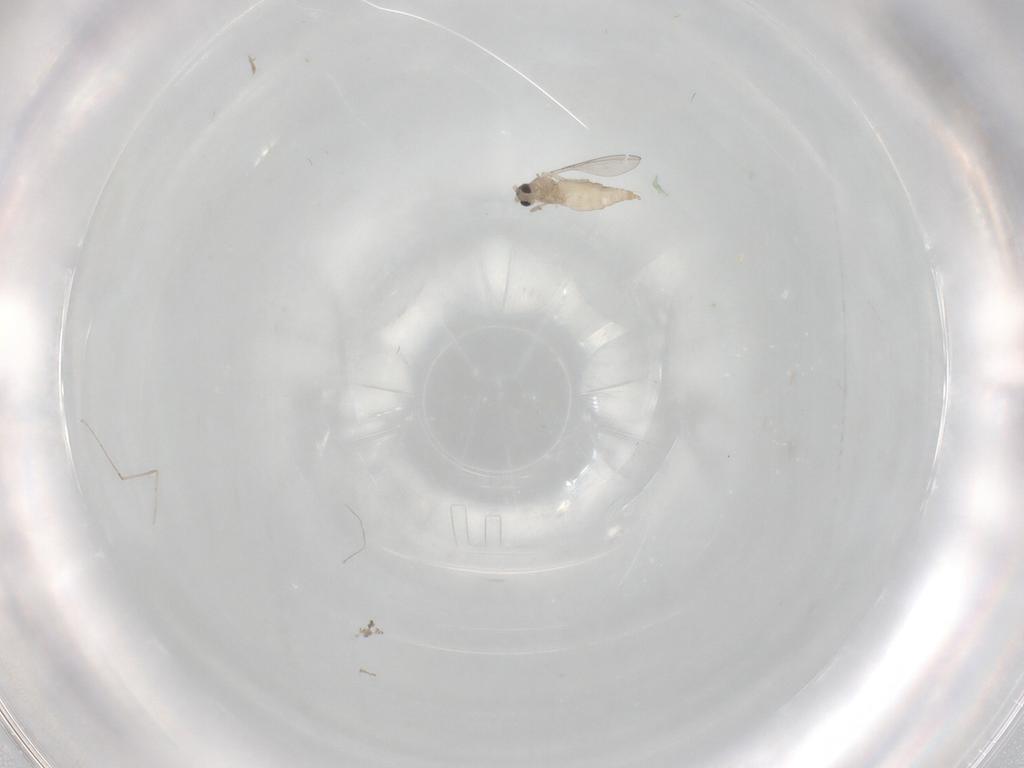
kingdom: Animalia
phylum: Arthropoda
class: Insecta
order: Diptera
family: Cecidomyiidae
